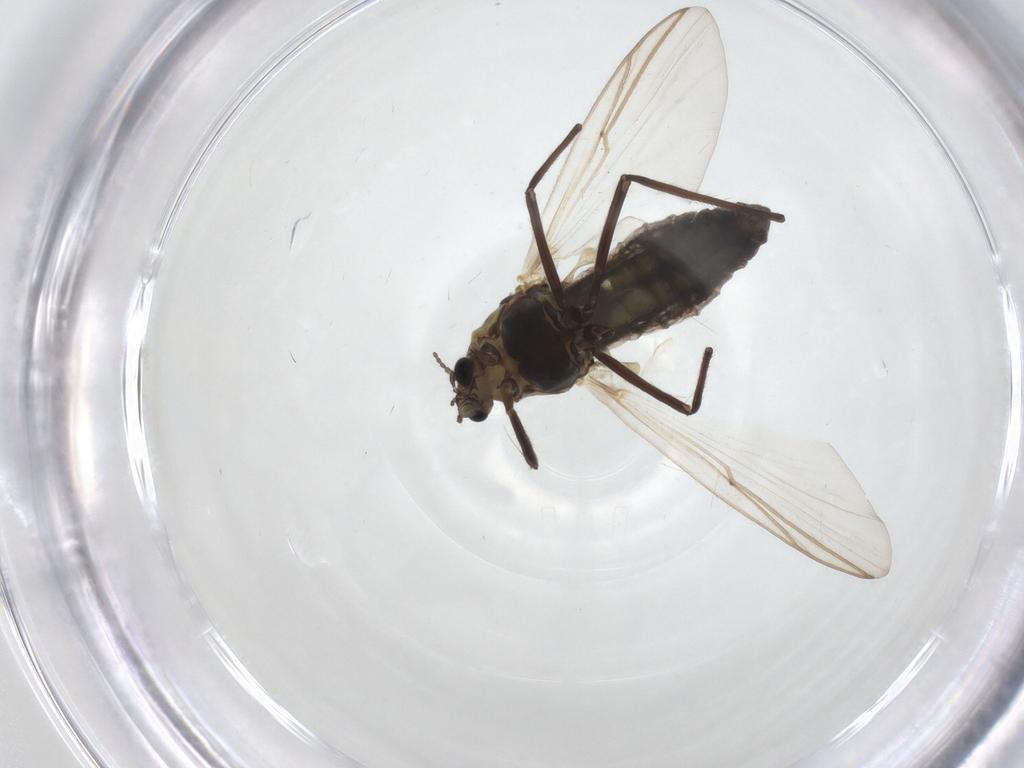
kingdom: Animalia
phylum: Arthropoda
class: Insecta
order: Diptera
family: Chironomidae
